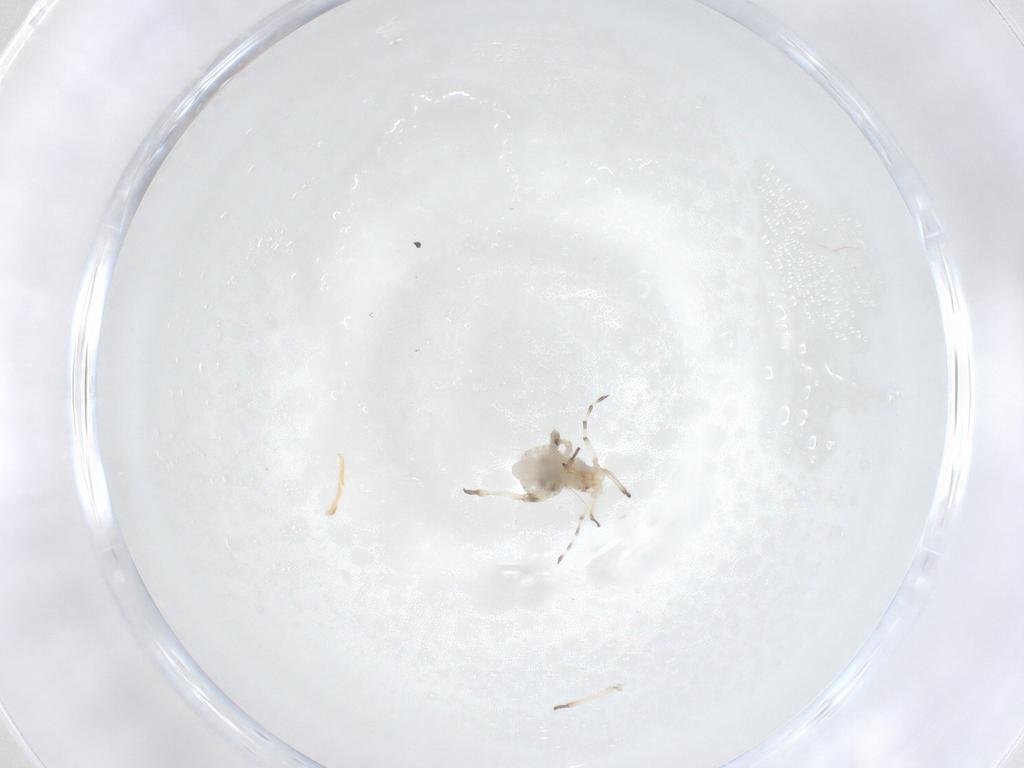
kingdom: Animalia
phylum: Arthropoda
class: Insecta
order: Hemiptera
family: Aphididae
